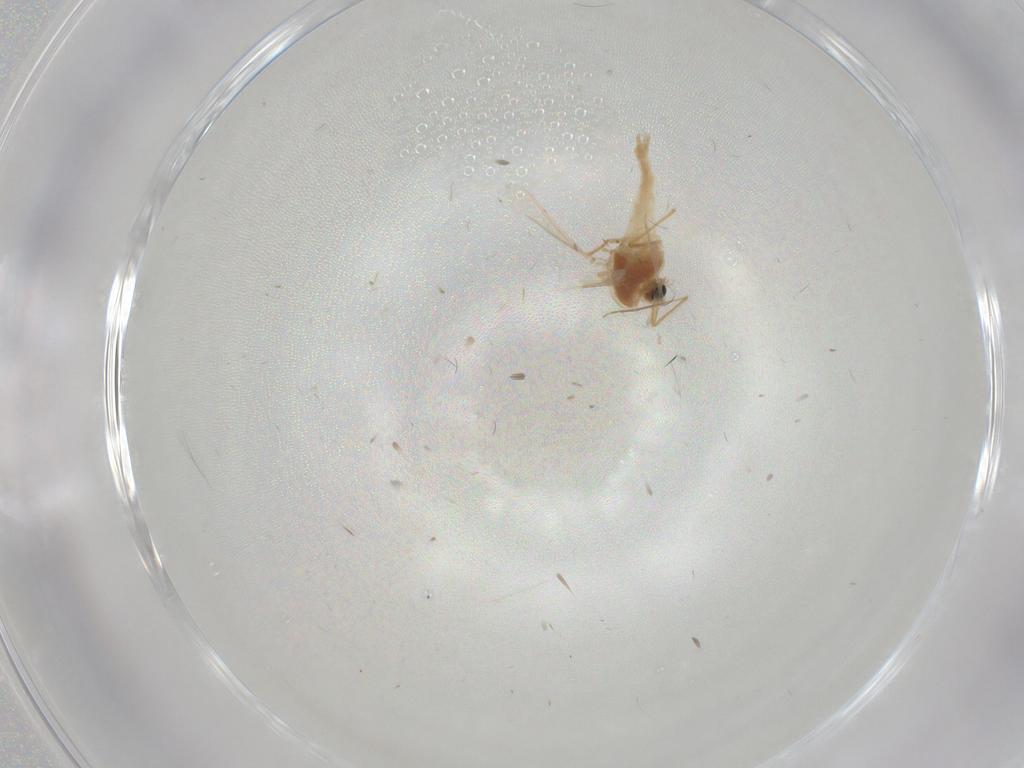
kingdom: Animalia
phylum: Arthropoda
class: Insecta
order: Diptera
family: Chironomidae
